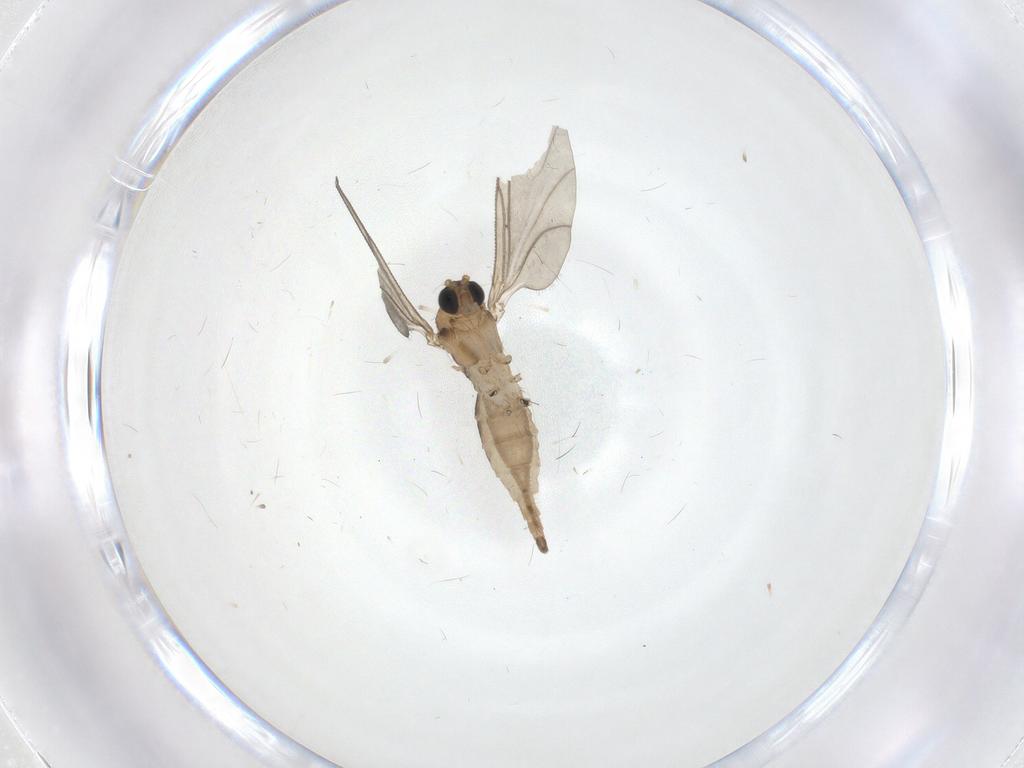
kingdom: Animalia
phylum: Arthropoda
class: Insecta
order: Diptera
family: Sciaridae
